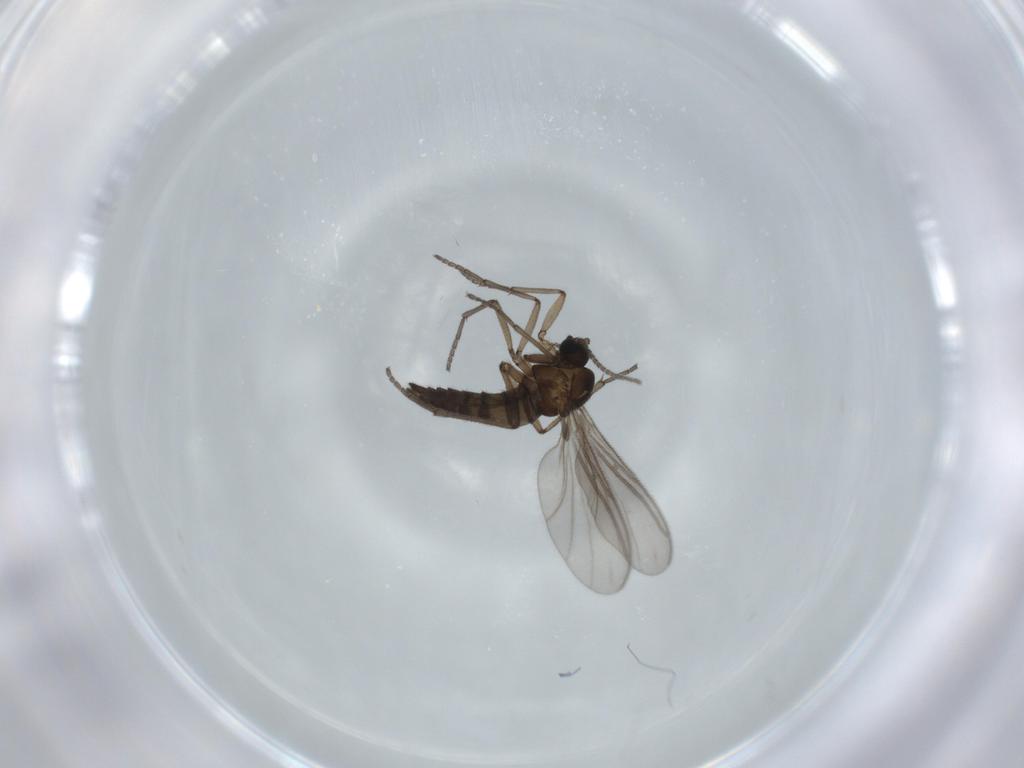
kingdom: Animalia
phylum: Arthropoda
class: Insecta
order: Diptera
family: Sciaridae
